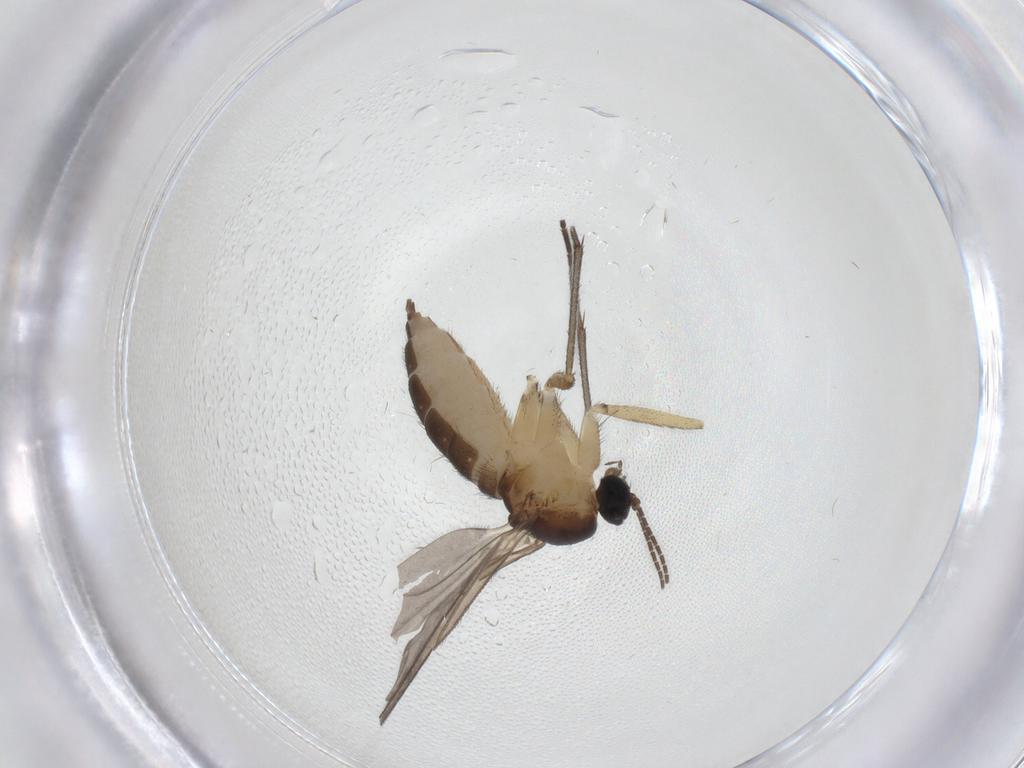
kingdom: Animalia
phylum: Arthropoda
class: Insecta
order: Diptera
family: Sciaridae
